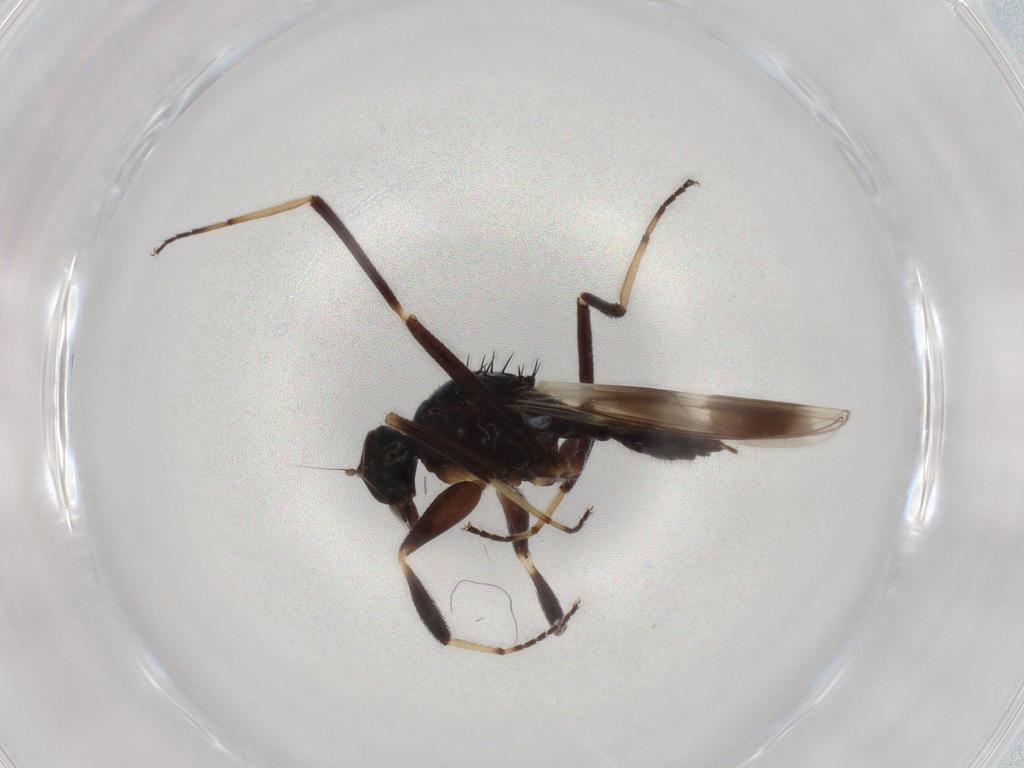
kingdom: Animalia
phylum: Arthropoda
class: Insecta
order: Diptera
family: Hybotidae
